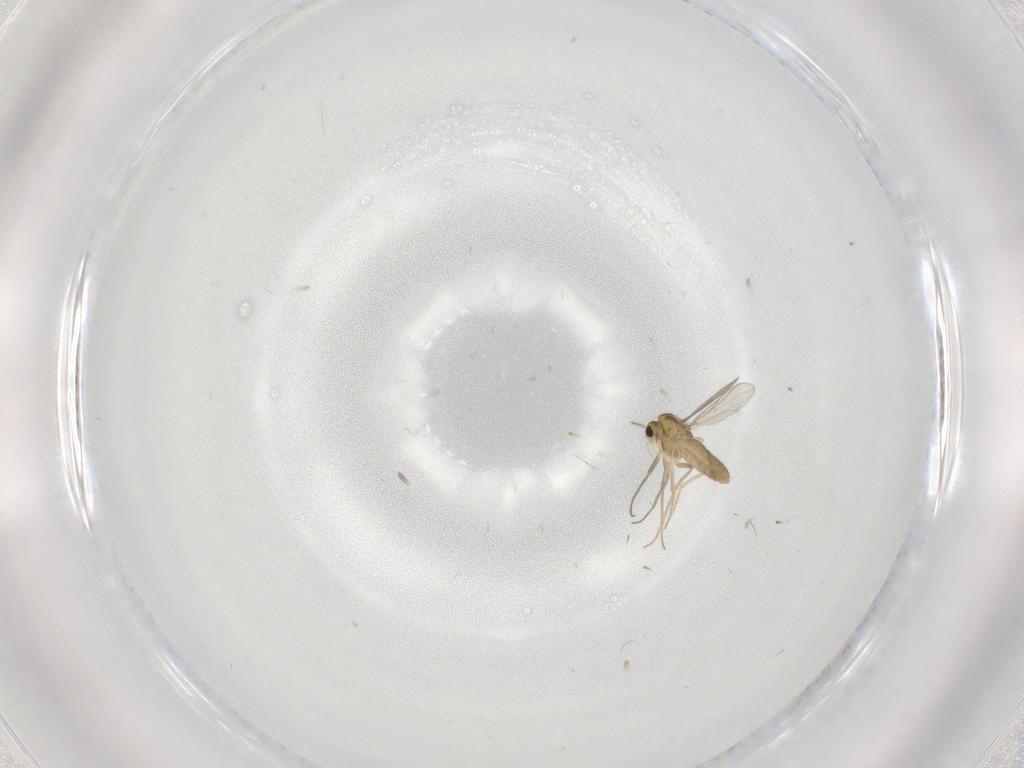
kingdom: Animalia
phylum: Arthropoda
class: Insecta
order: Diptera
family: Chironomidae
